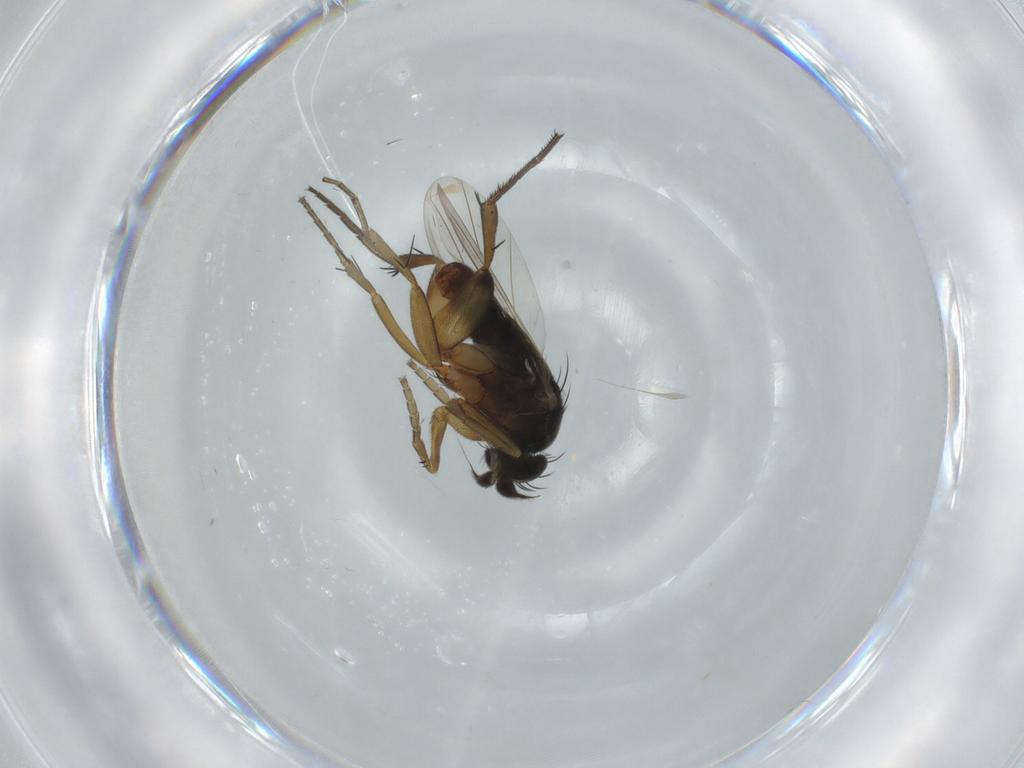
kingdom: Animalia
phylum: Arthropoda
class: Insecta
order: Diptera
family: Phoridae
